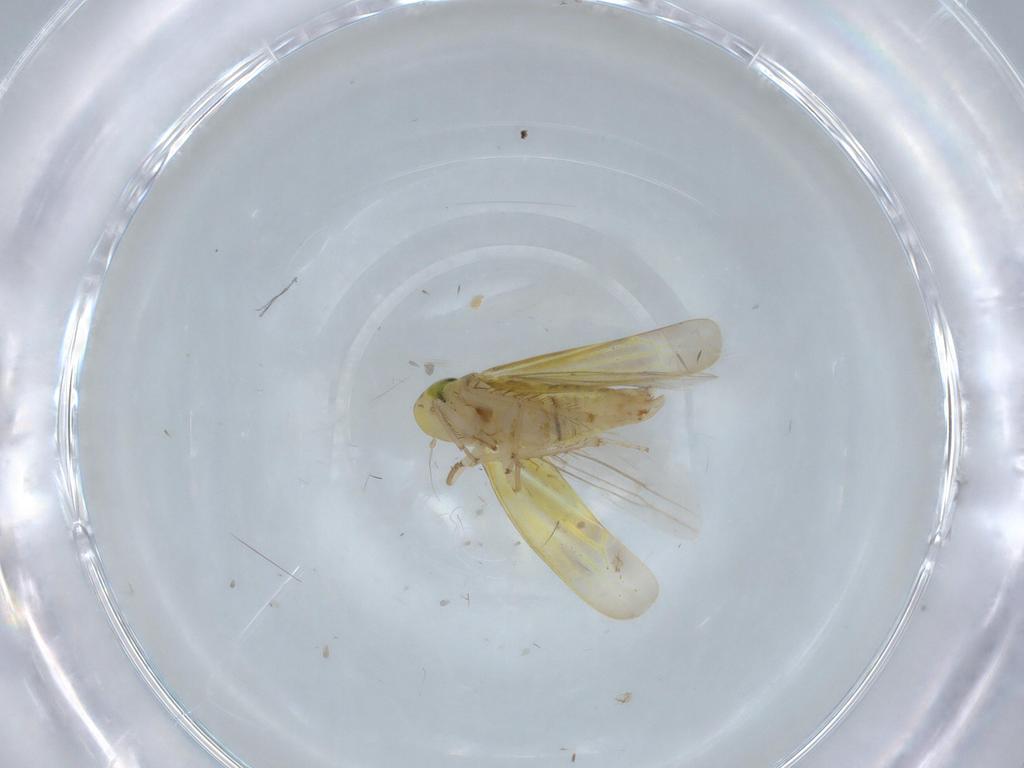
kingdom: Animalia
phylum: Arthropoda
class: Insecta
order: Hemiptera
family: Cicadellidae
